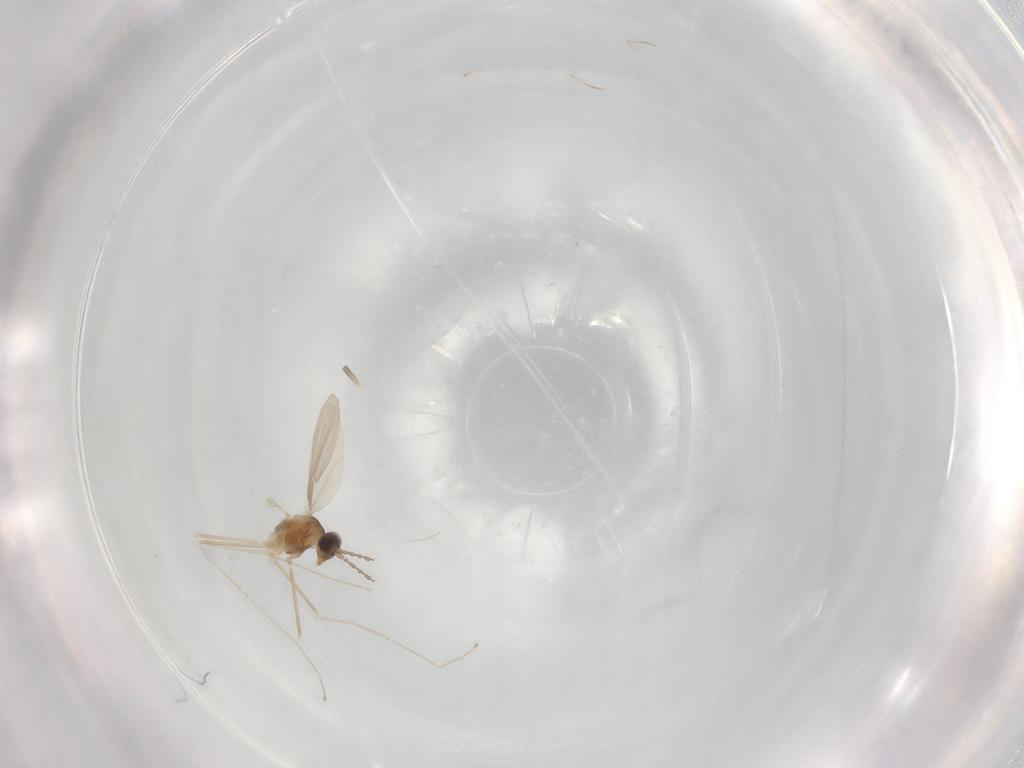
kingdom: Animalia
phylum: Arthropoda
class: Insecta
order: Diptera
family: Cecidomyiidae
